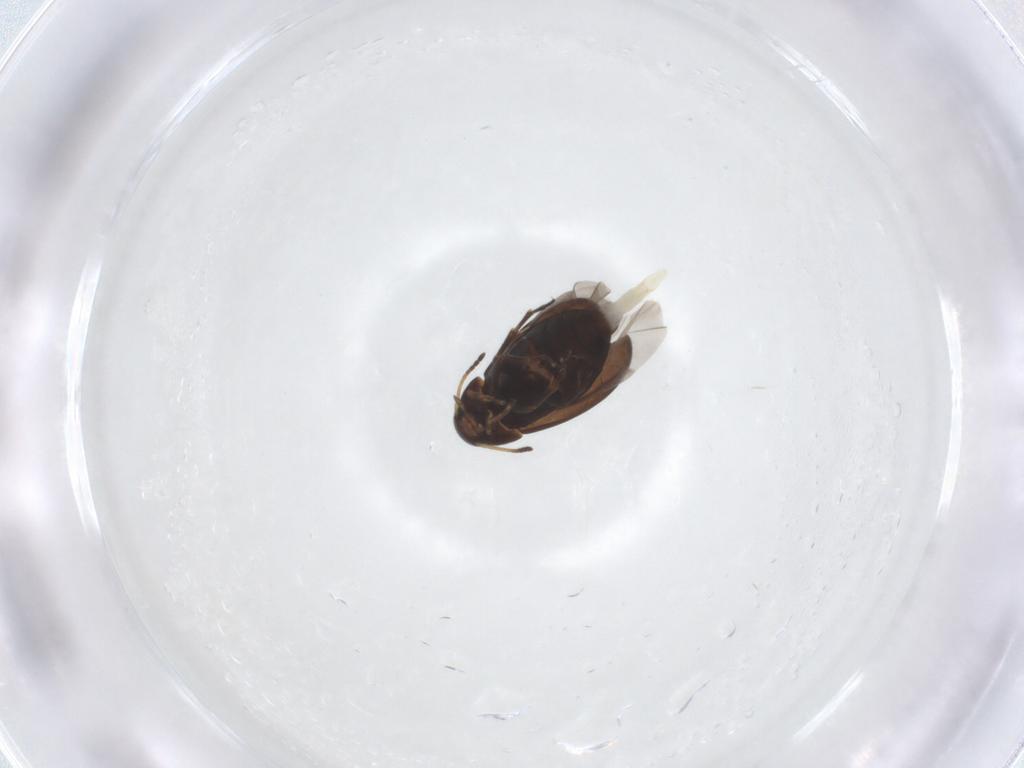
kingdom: Animalia
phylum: Arthropoda
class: Insecta
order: Coleoptera
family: Scraptiidae
